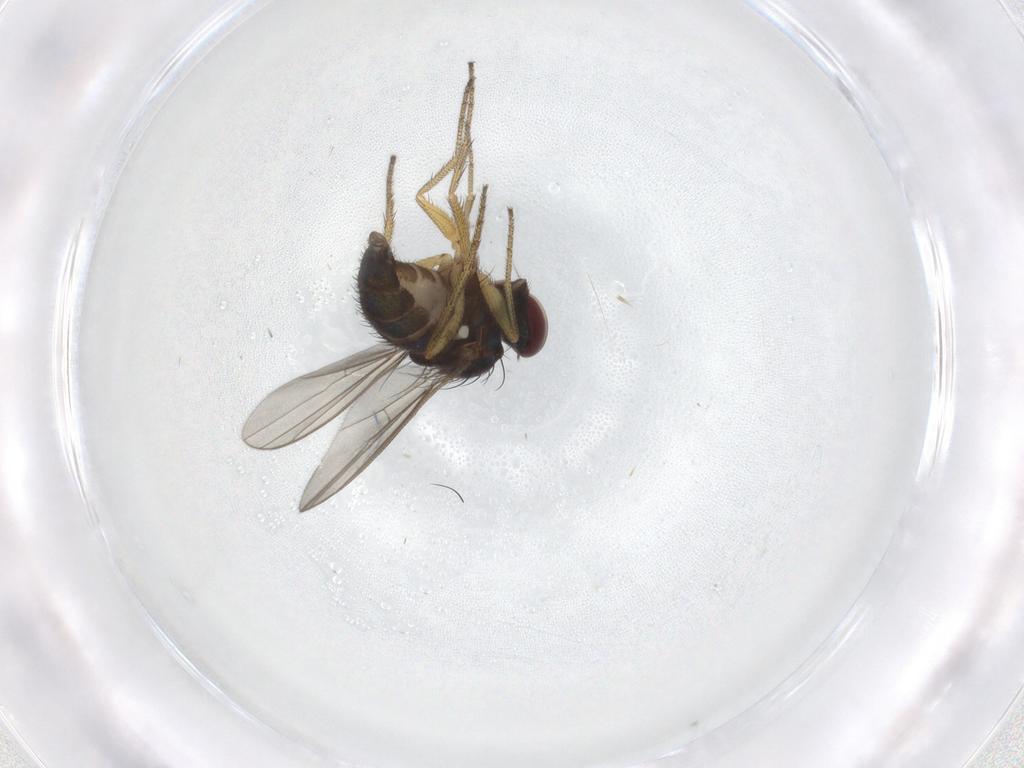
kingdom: Animalia
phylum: Arthropoda
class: Insecta
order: Diptera
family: Dolichopodidae
